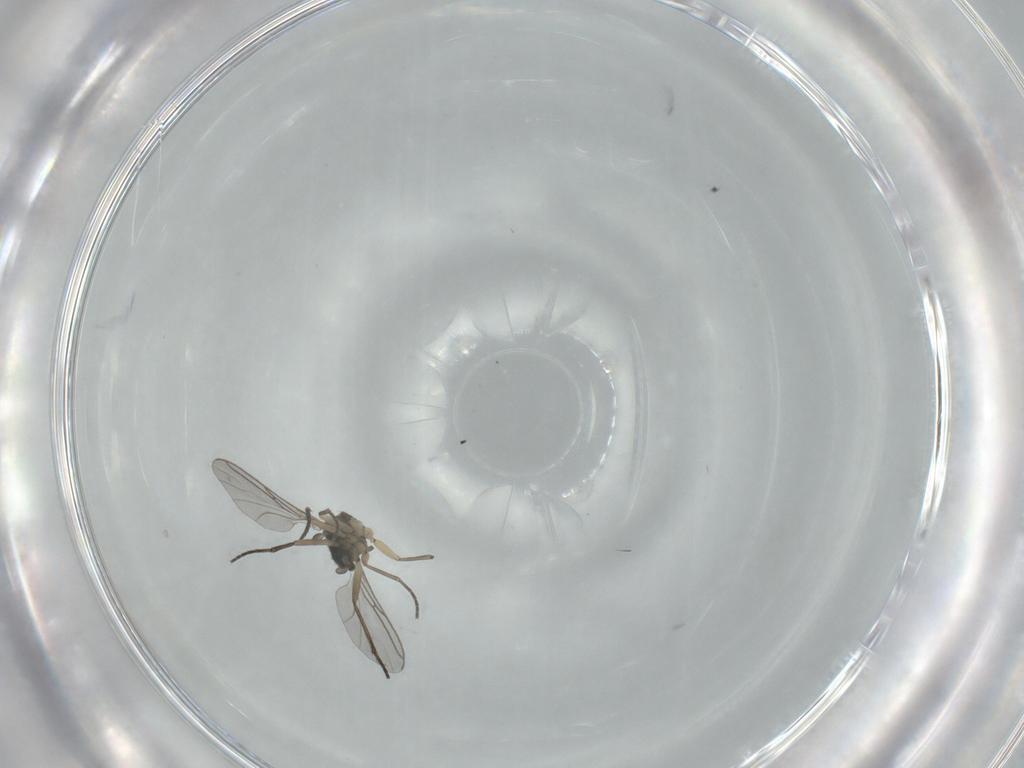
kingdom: Animalia
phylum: Arthropoda
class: Insecta
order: Diptera
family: Sciaridae
